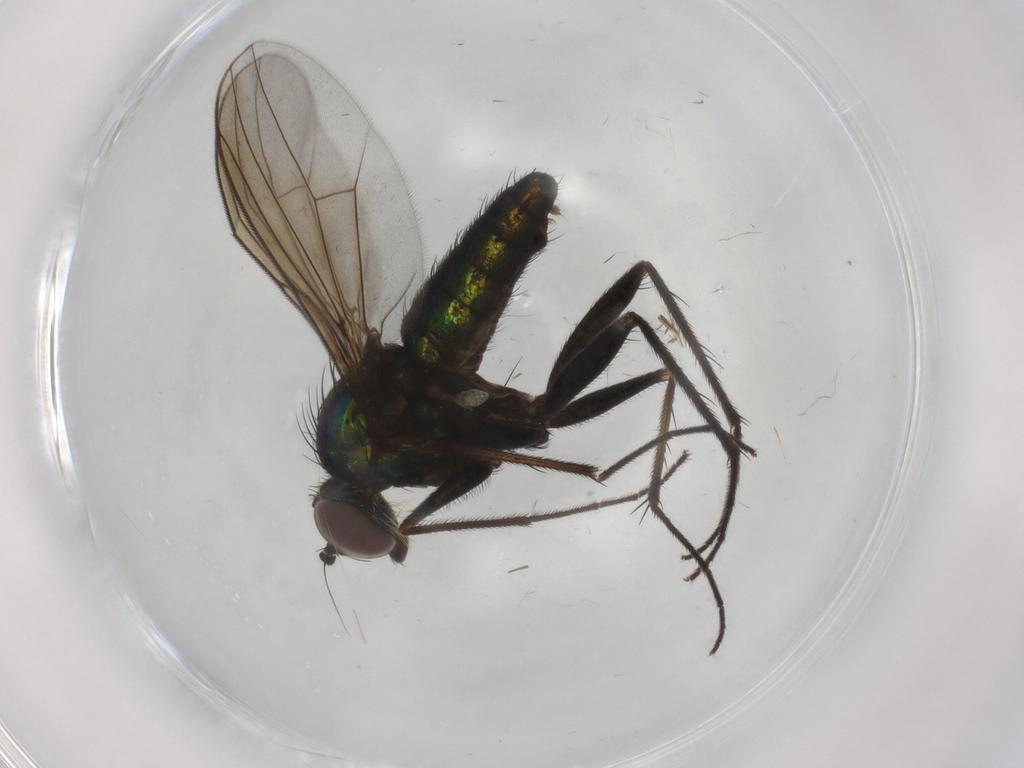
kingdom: Animalia
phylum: Arthropoda
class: Insecta
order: Diptera
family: Dolichopodidae
